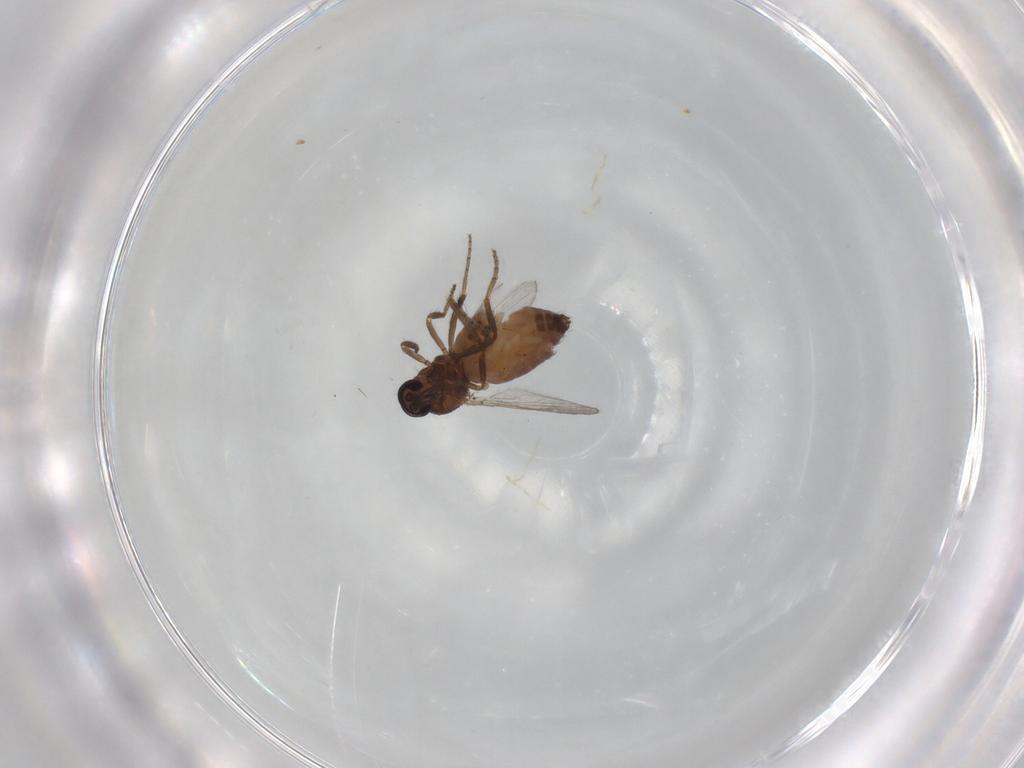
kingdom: Animalia
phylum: Arthropoda
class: Insecta
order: Diptera
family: Ceratopogonidae
